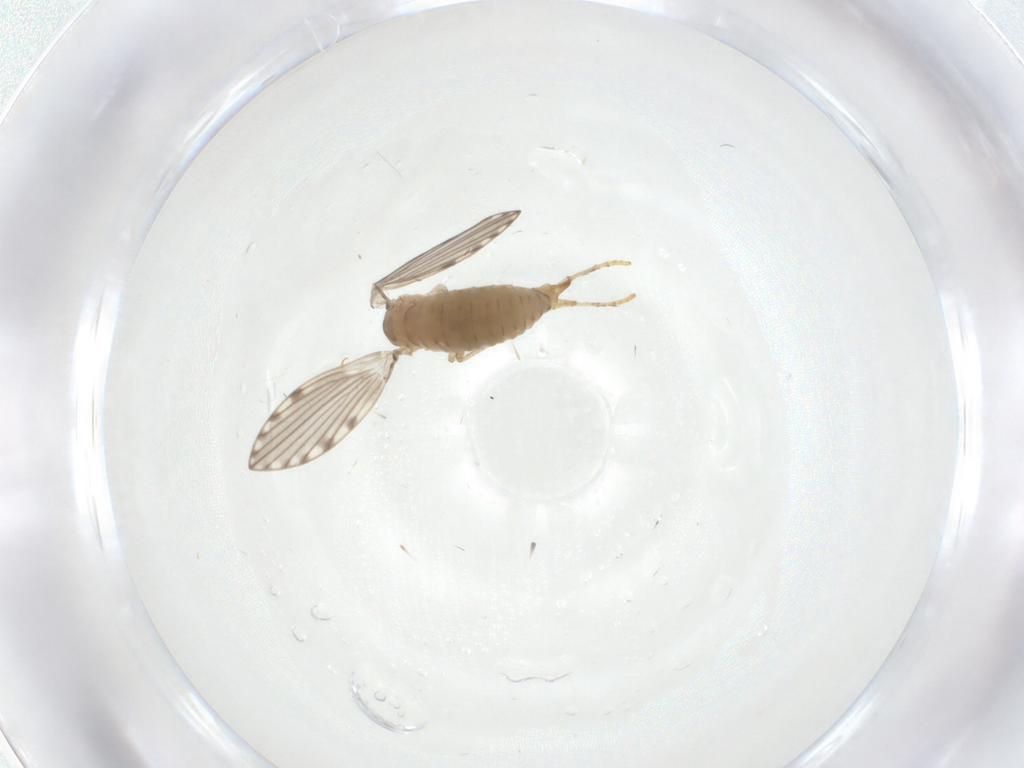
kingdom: Animalia
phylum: Arthropoda
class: Insecta
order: Diptera
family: Psychodidae
